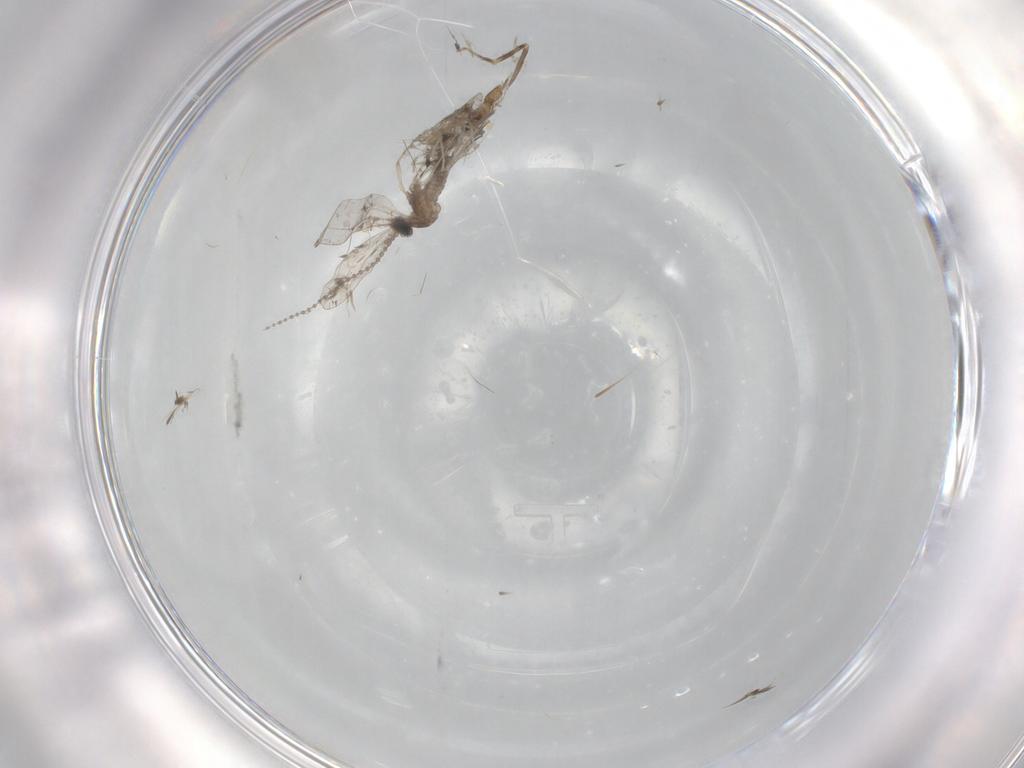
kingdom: Animalia
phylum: Arthropoda
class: Insecta
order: Diptera
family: Cecidomyiidae
